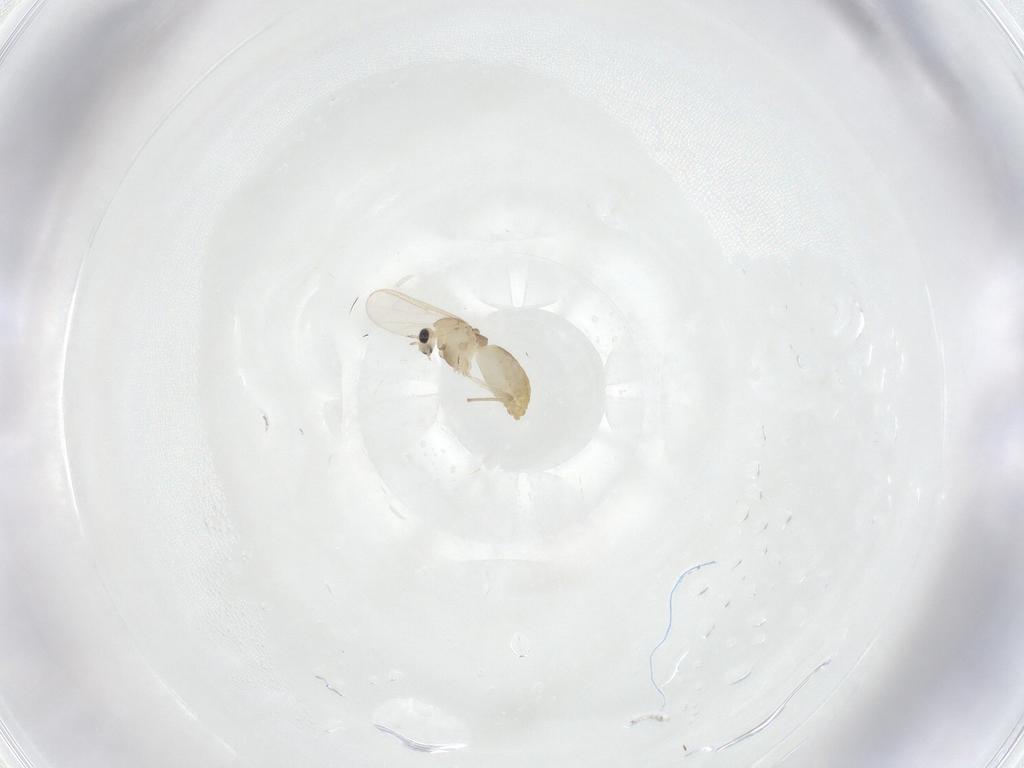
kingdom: Animalia
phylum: Arthropoda
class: Insecta
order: Diptera
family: Chironomidae
